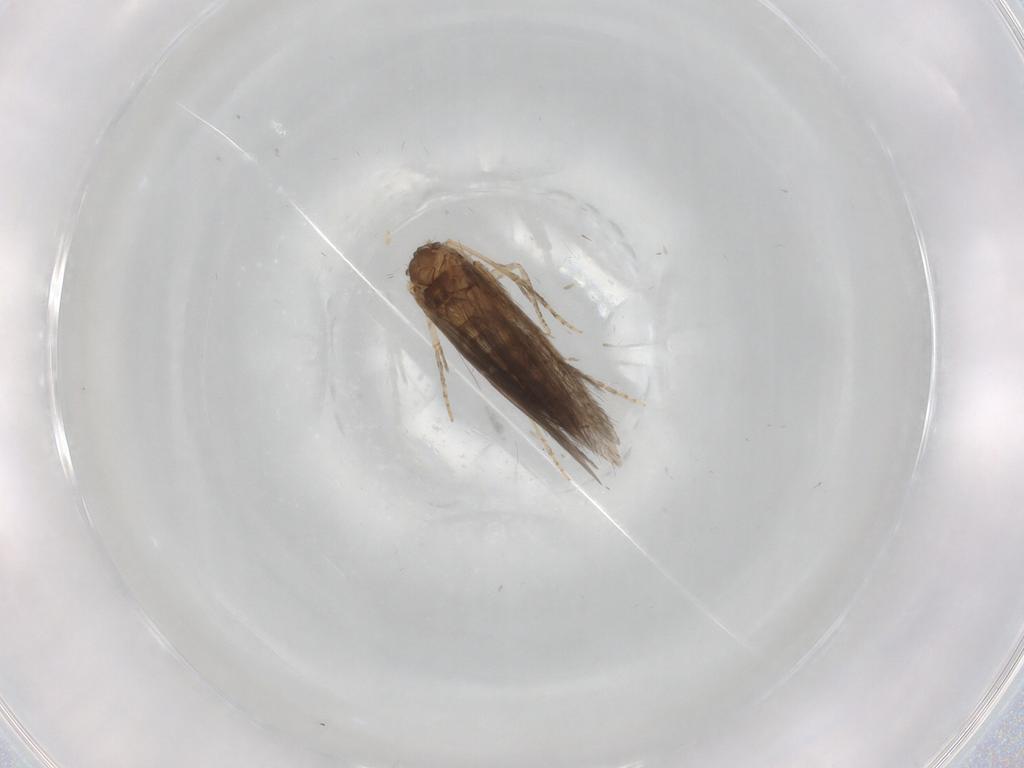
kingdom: Animalia
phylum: Arthropoda
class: Insecta
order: Trichoptera
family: Hydroptilidae
